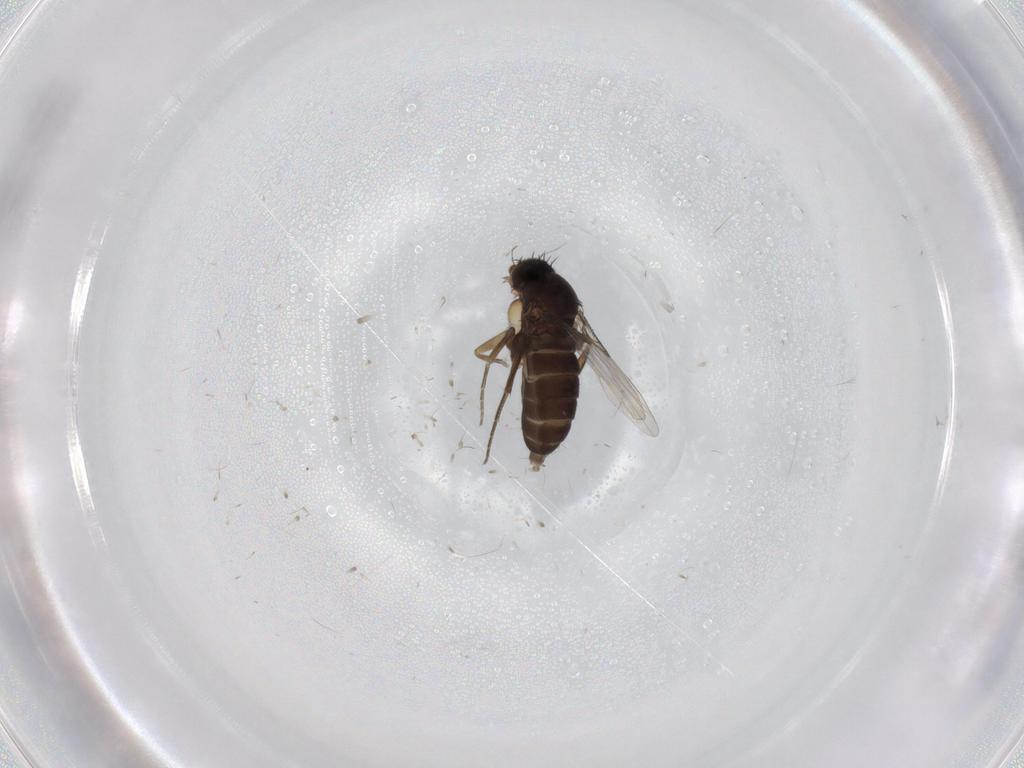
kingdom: Animalia
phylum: Arthropoda
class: Insecta
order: Diptera
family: Phoridae
